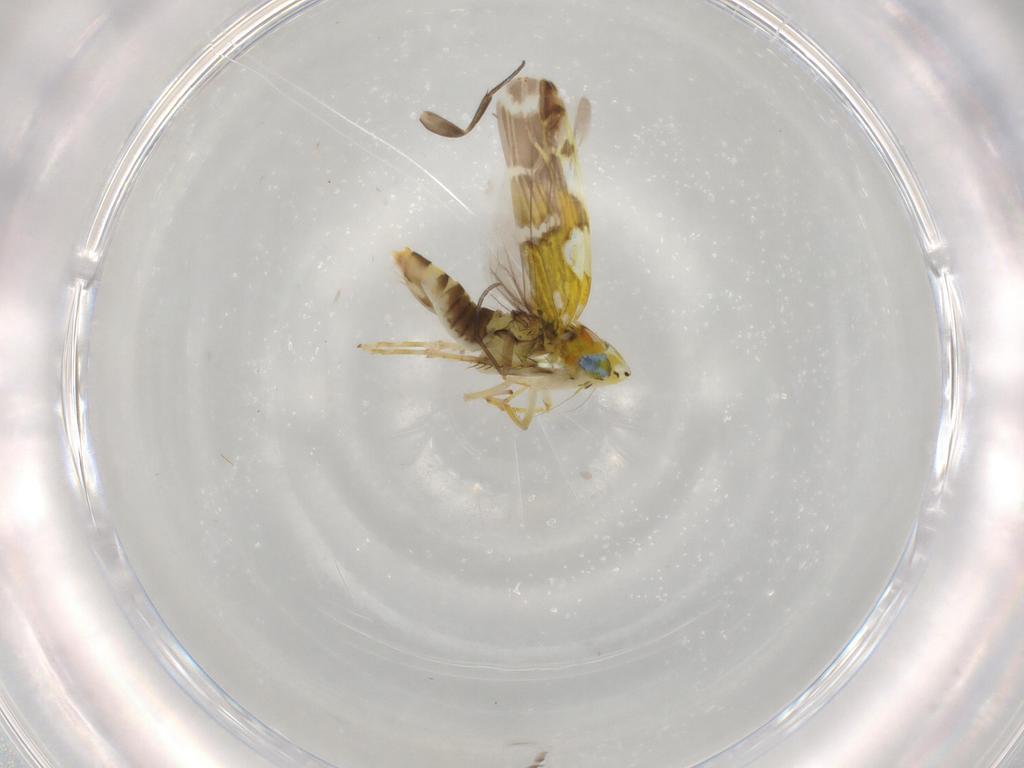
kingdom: Animalia
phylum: Arthropoda
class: Insecta
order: Hemiptera
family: Cicadellidae
